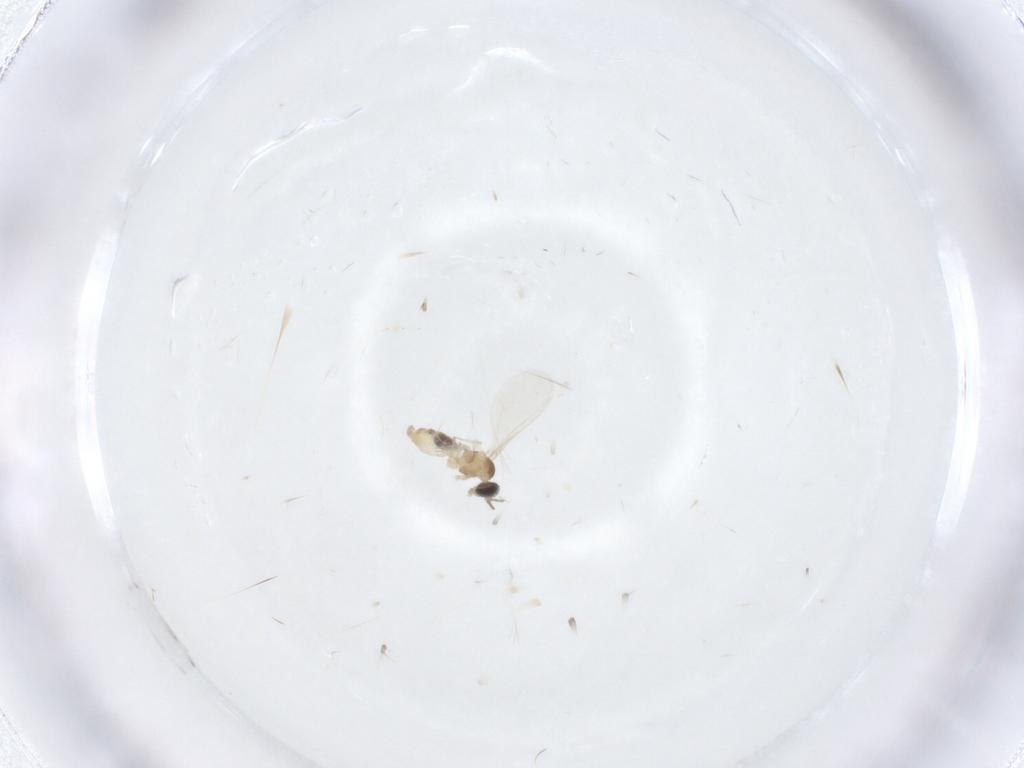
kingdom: Animalia
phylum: Arthropoda
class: Insecta
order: Diptera
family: Cecidomyiidae
